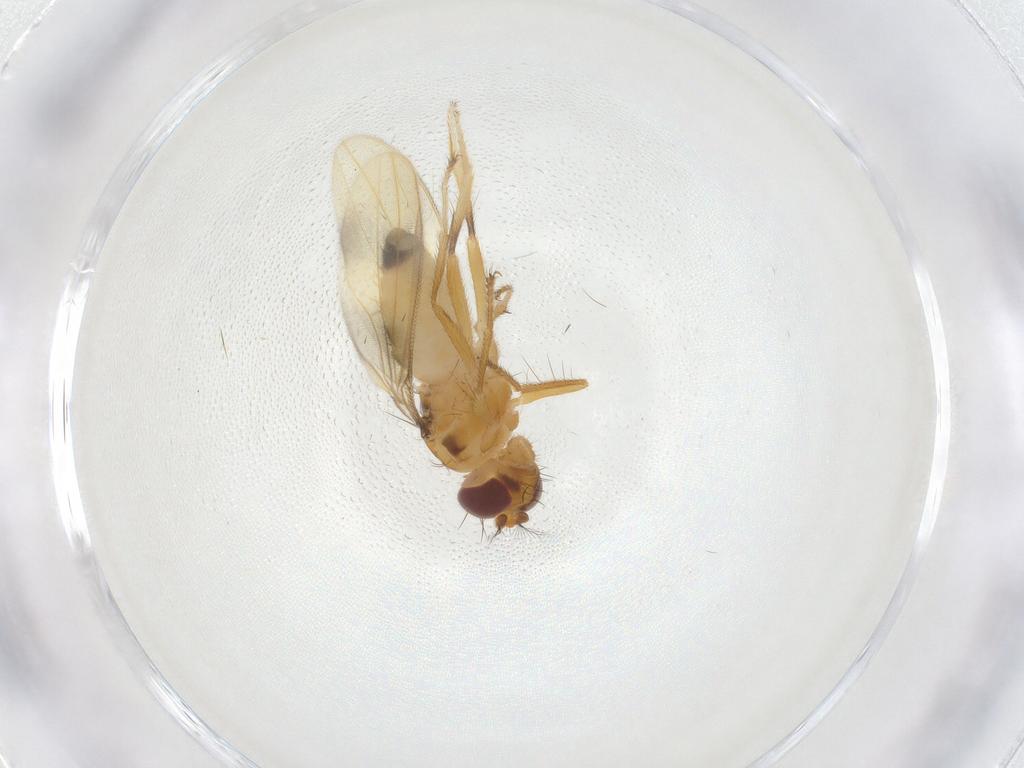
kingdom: Animalia
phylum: Arthropoda
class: Insecta
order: Diptera
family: Periscelididae
